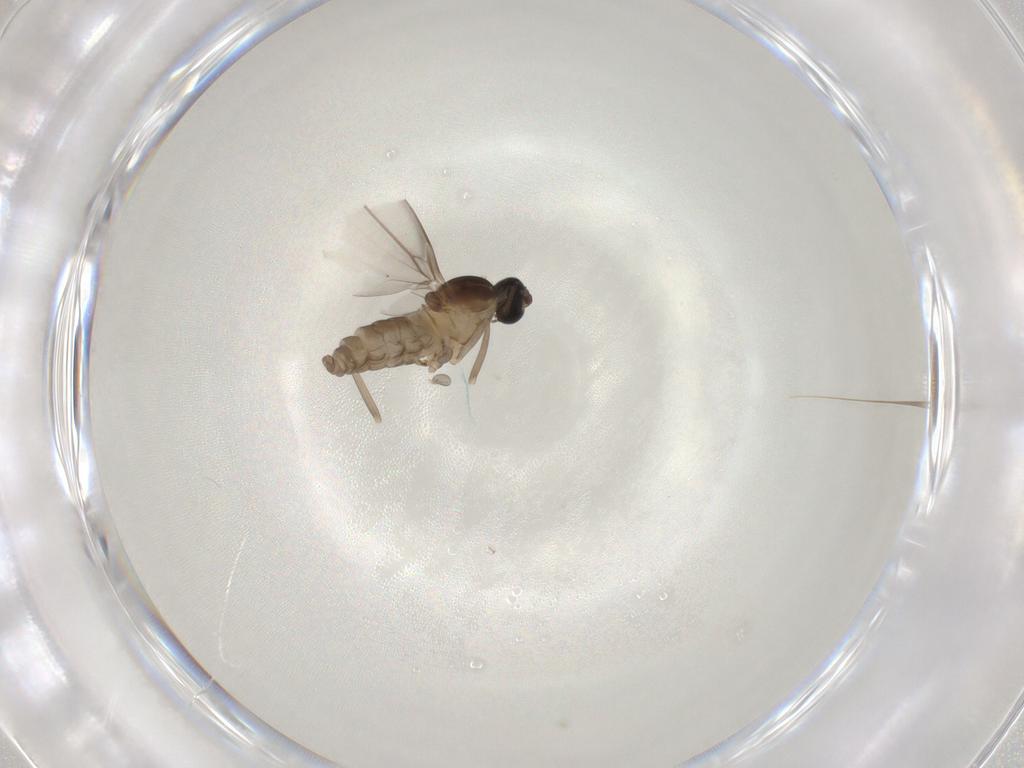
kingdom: Animalia
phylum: Arthropoda
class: Insecta
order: Diptera
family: Cecidomyiidae
